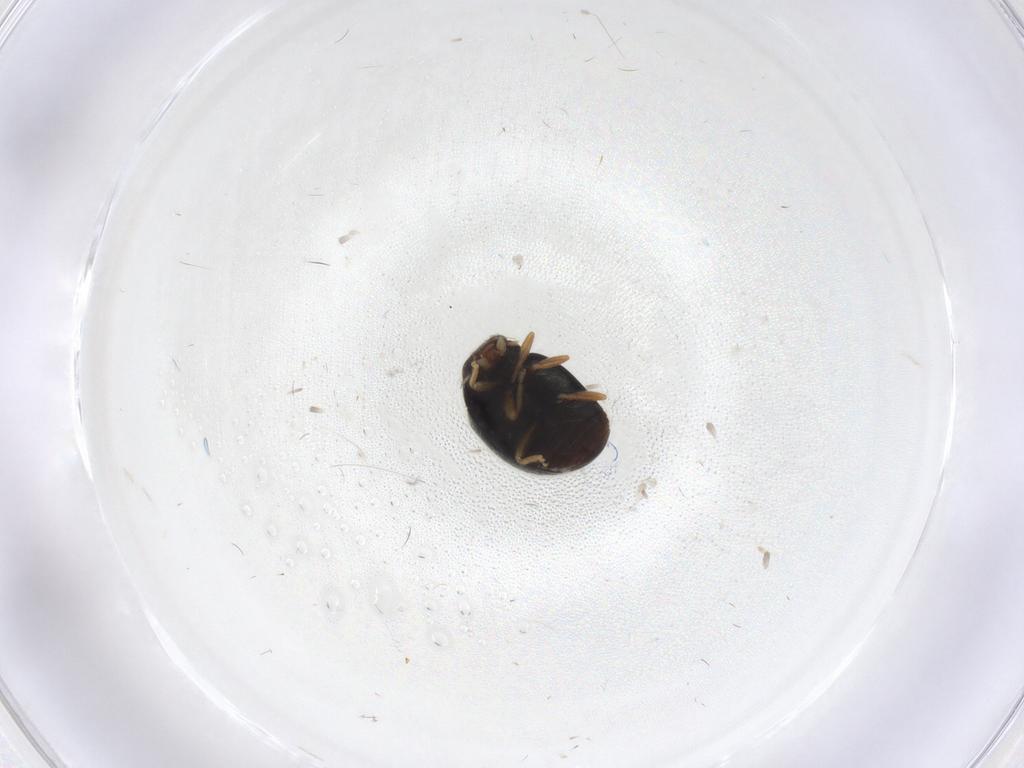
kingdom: Animalia
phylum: Arthropoda
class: Insecta
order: Coleoptera
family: Coccinellidae
